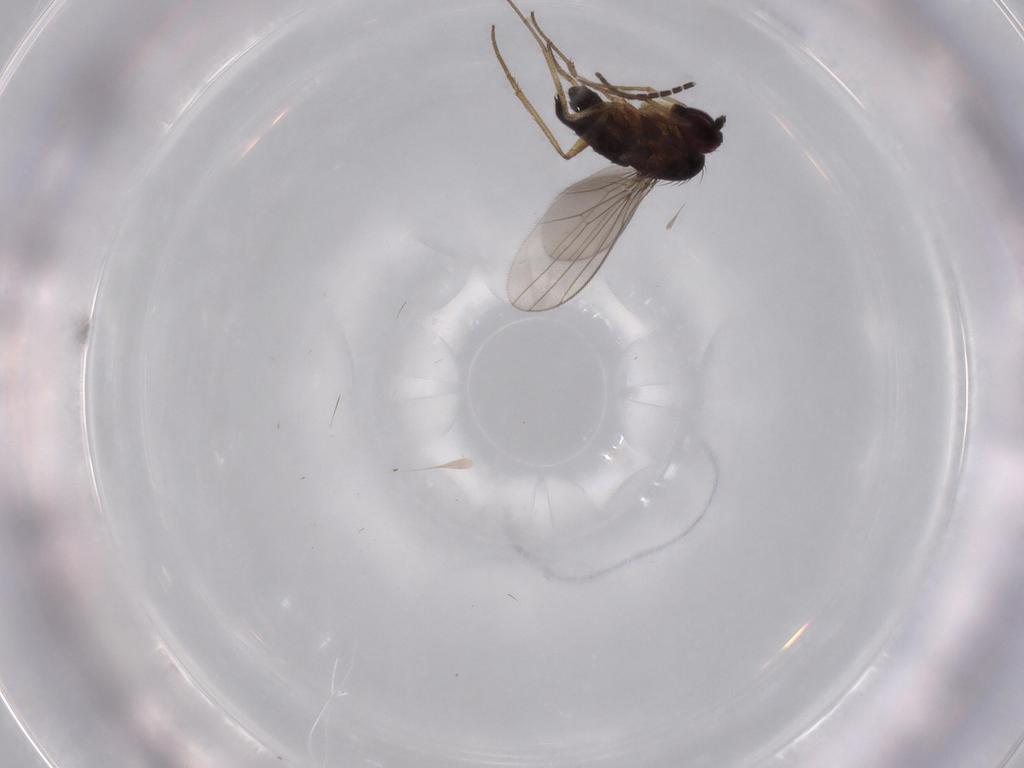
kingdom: Animalia
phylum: Arthropoda
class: Insecta
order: Diptera
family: Dolichopodidae
